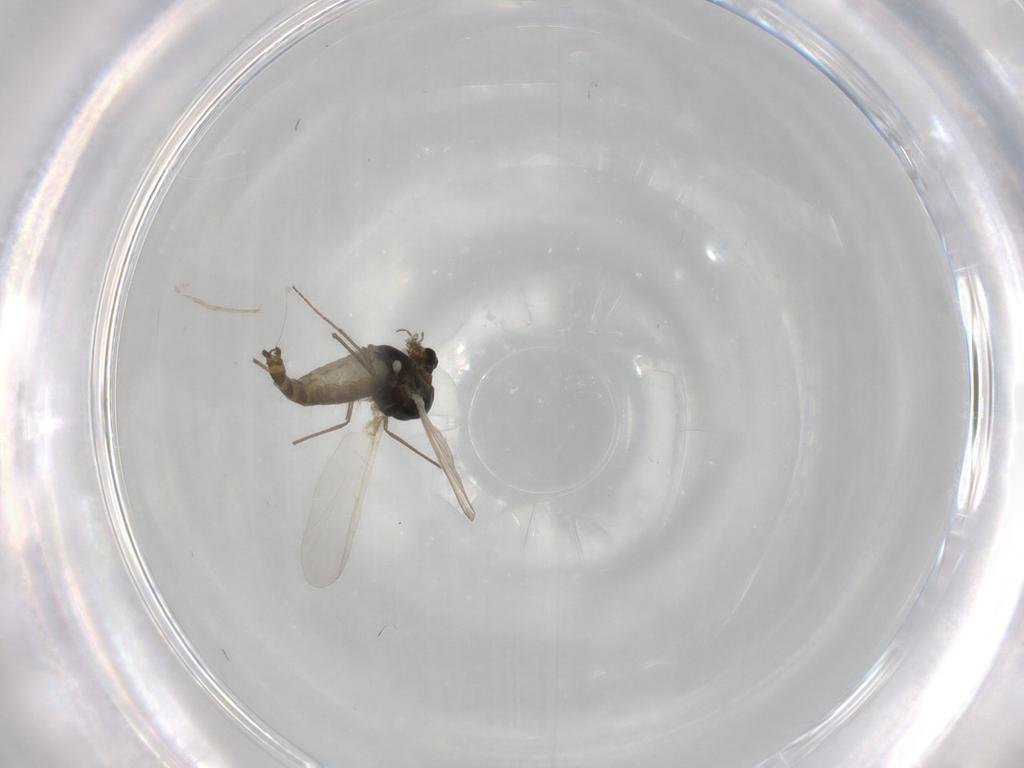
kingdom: Animalia
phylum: Arthropoda
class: Insecta
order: Diptera
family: Chironomidae
